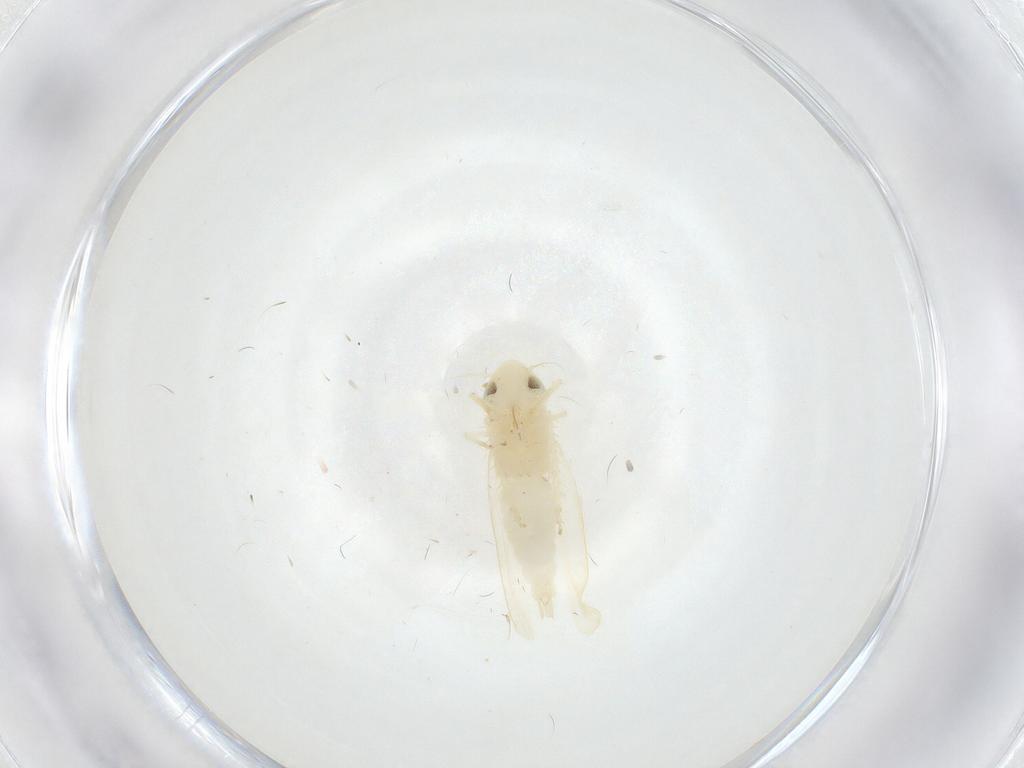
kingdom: Animalia
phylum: Arthropoda
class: Insecta
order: Hemiptera
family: Cicadellidae
